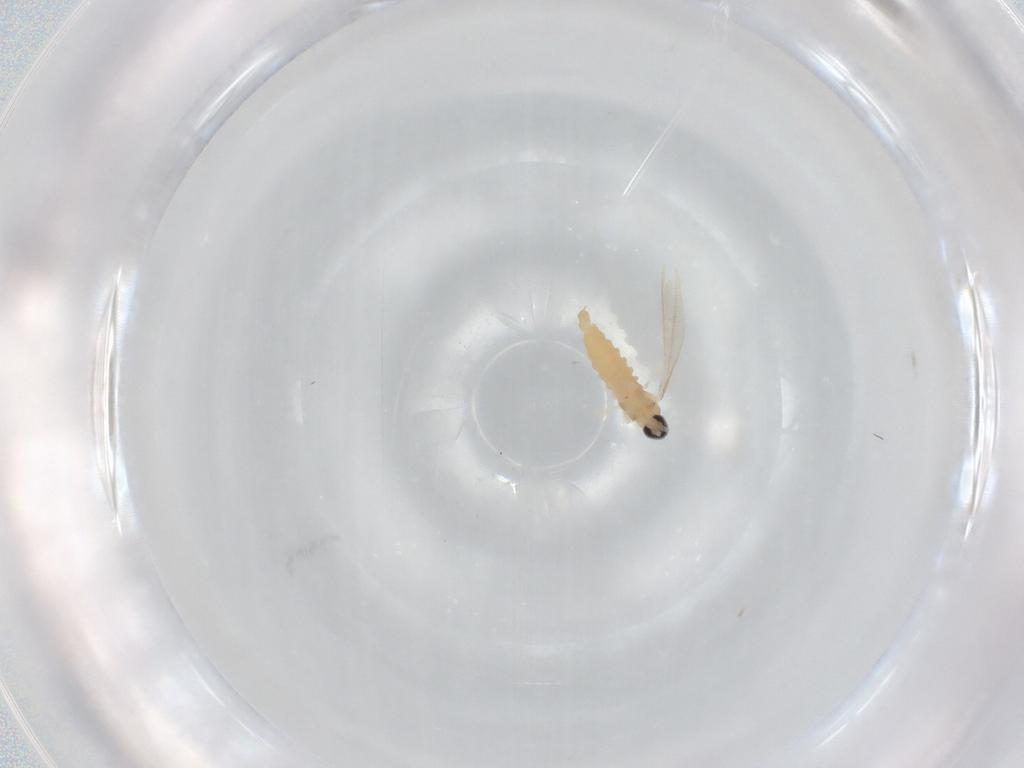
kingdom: Animalia
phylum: Arthropoda
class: Insecta
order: Diptera
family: Cecidomyiidae
